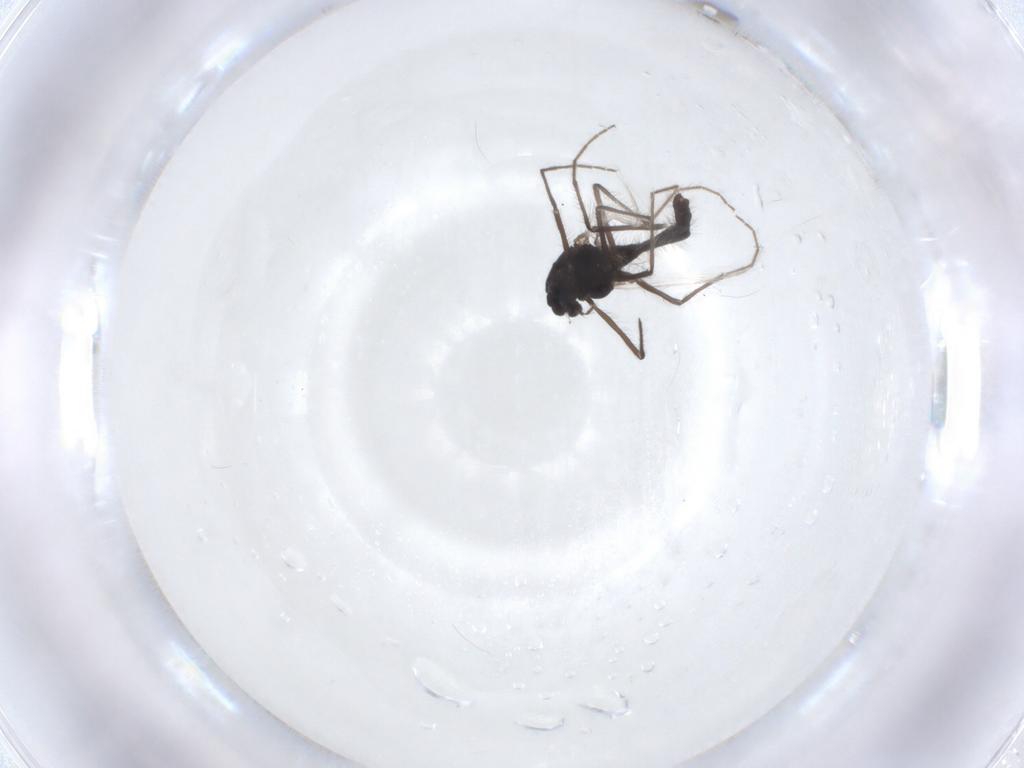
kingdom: Animalia
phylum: Arthropoda
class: Insecta
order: Diptera
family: Chironomidae
